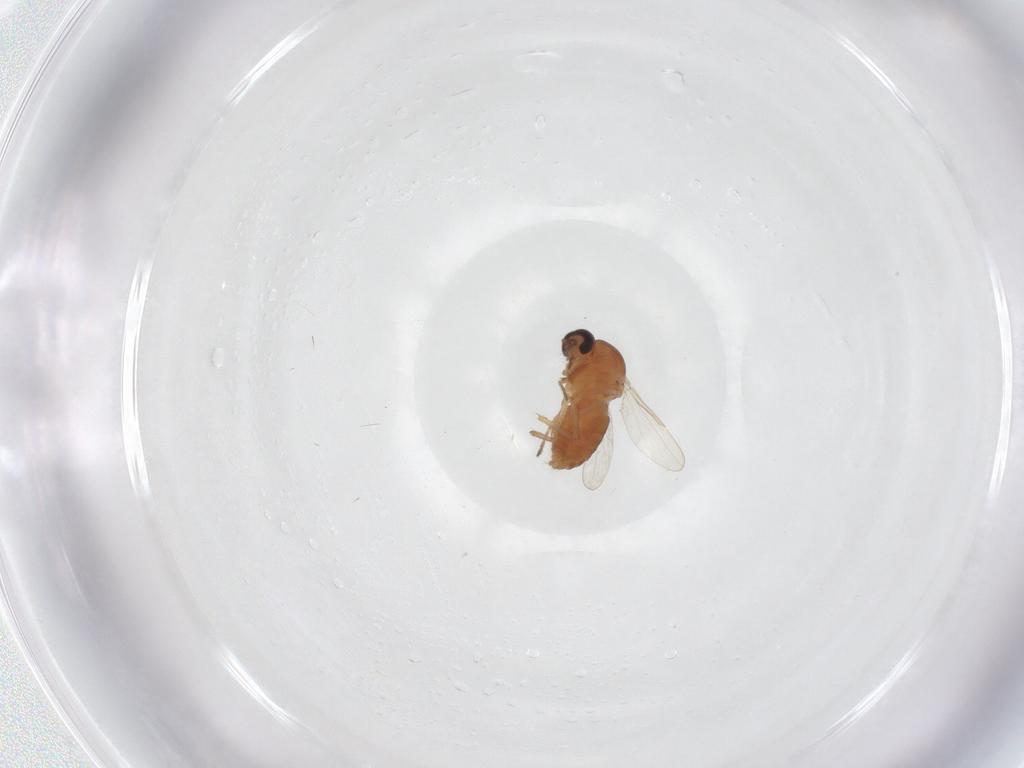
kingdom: Animalia
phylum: Arthropoda
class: Insecta
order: Diptera
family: Ceratopogonidae
